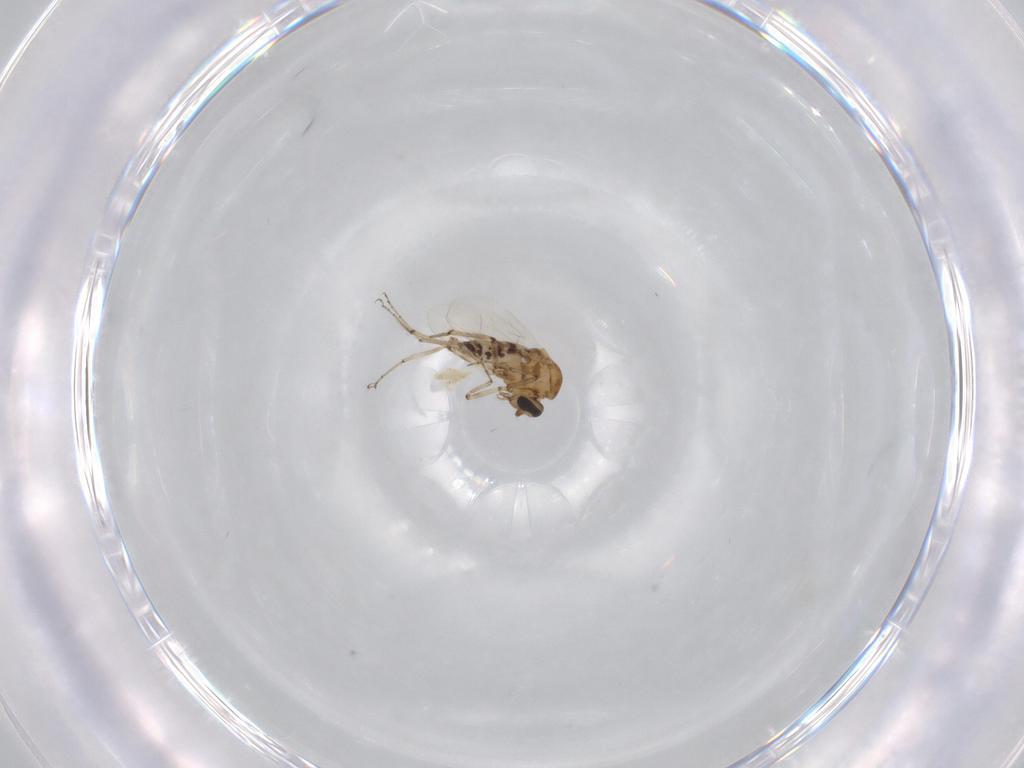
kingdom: Animalia
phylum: Arthropoda
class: Insecta
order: Diptera
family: Ceratopogonidae
